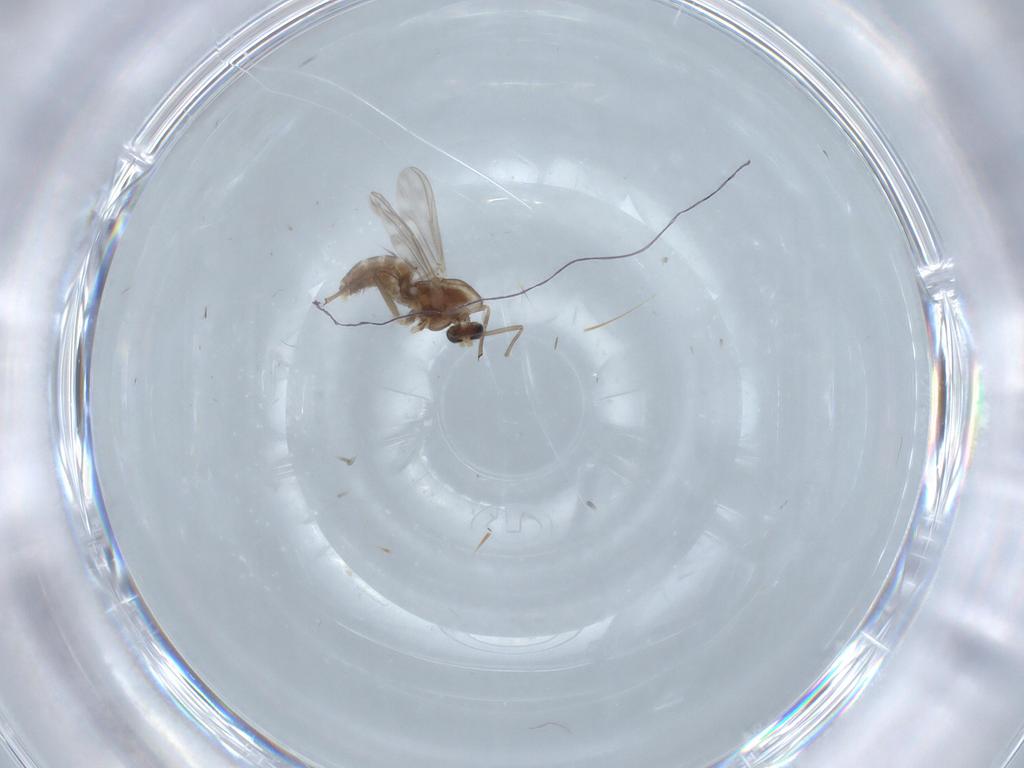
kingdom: Animalia
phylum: Arthropoda
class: Insecta
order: Diptera
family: Chironomidae
